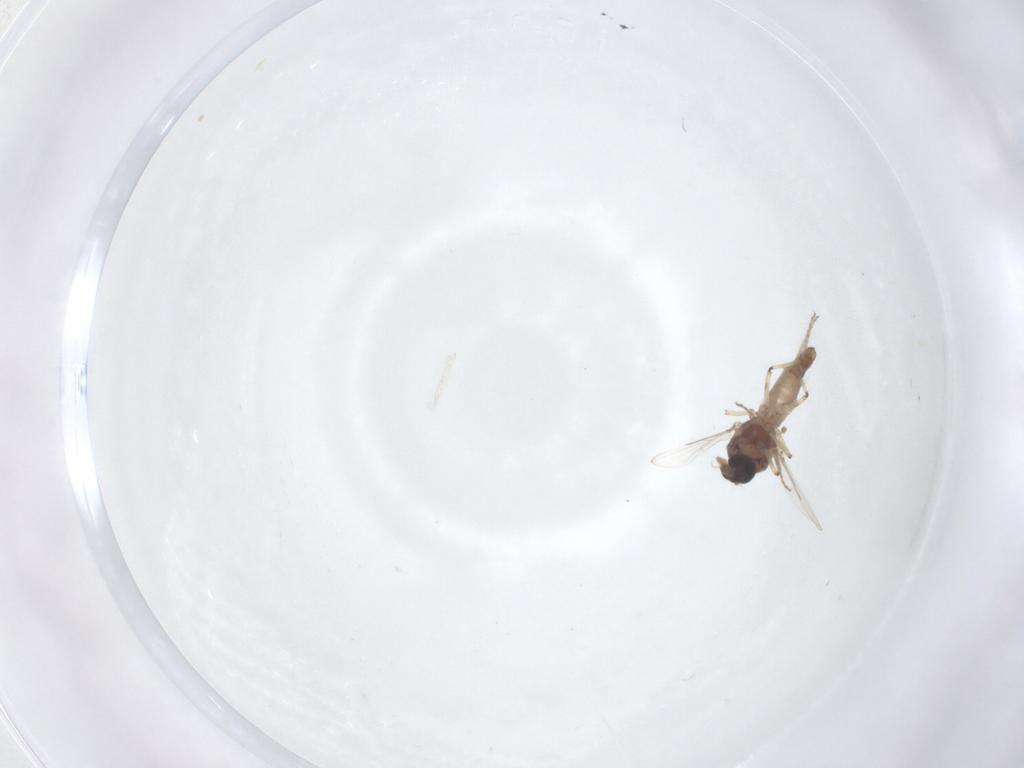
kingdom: Animalia
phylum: Arthropoda
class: Insecta
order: Diptera
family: Ceratopogonidae
